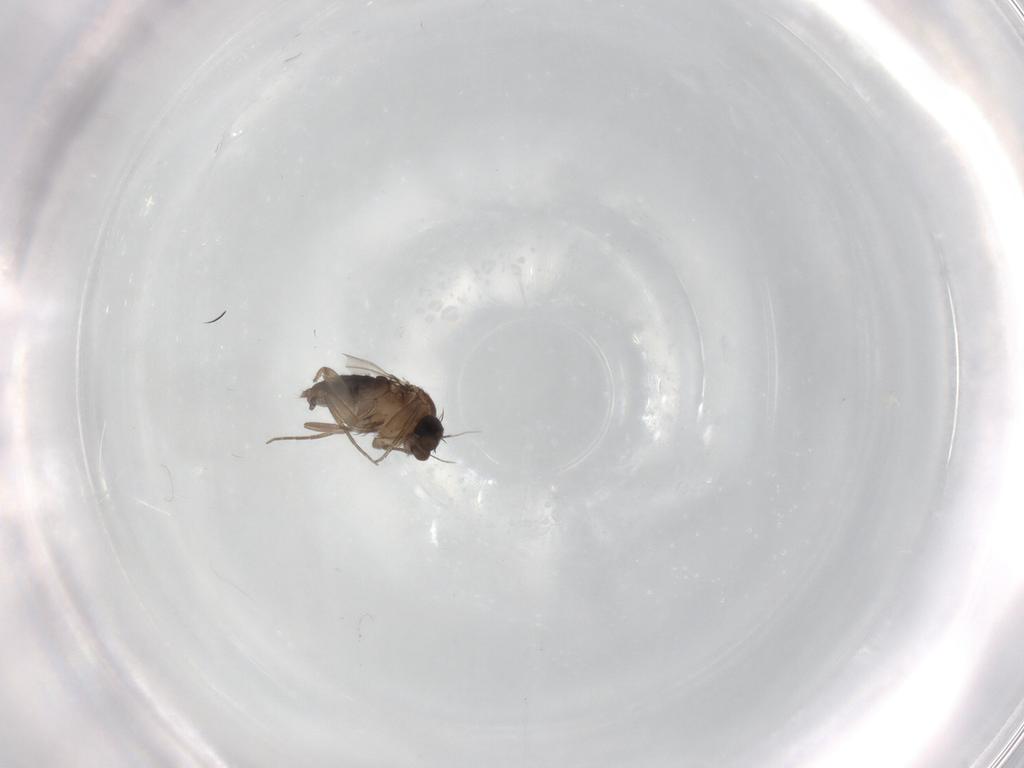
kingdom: Animalia
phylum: Arthropoda
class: Insecta
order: Diptera
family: Phoridae
